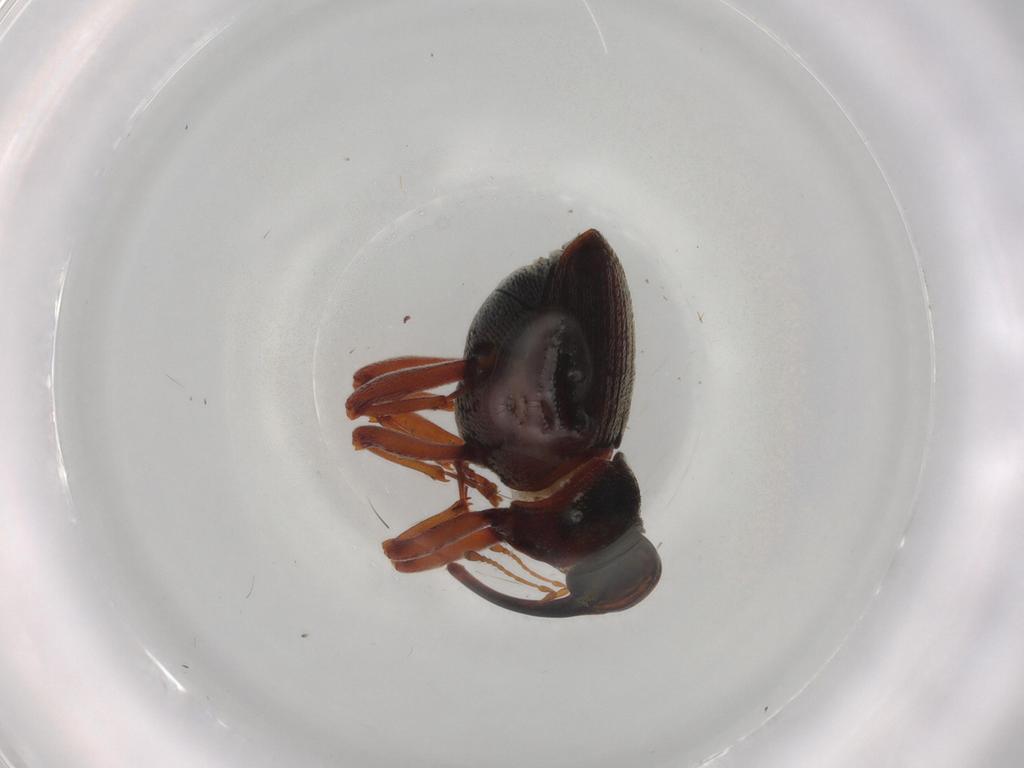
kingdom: Animalia
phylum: Arthropoda
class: Insecta
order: Coleoptera
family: Curculionidae
